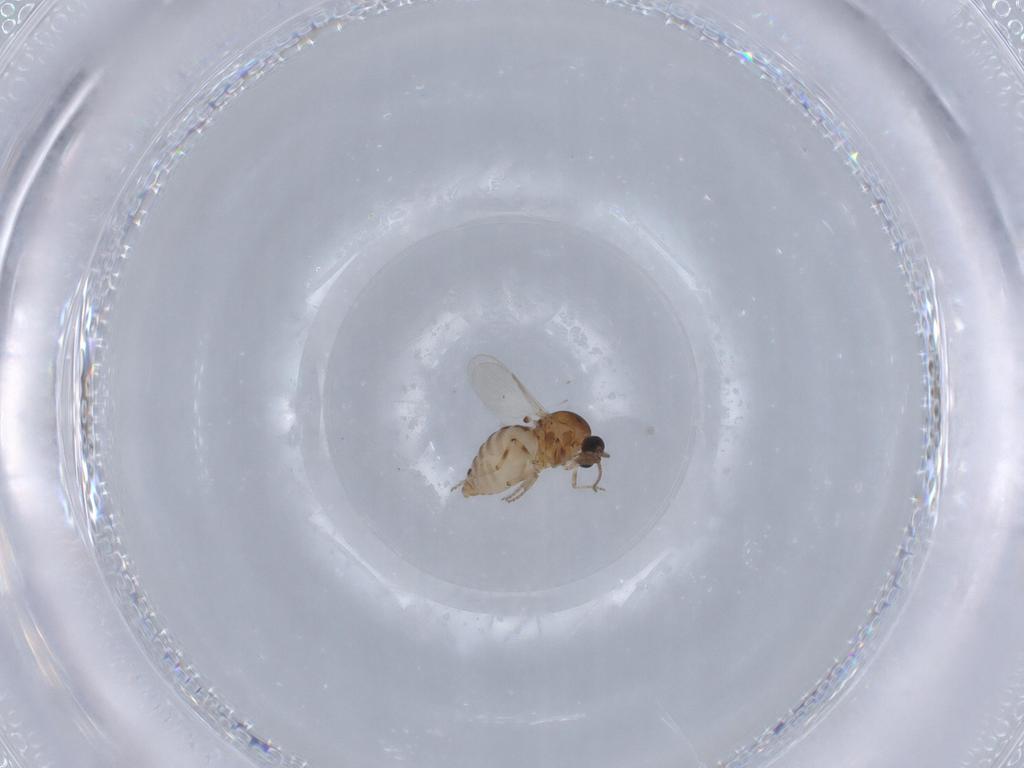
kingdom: Animalia
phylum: Arthropoda
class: Insecta
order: Diptera
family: Ceratopogonidae
